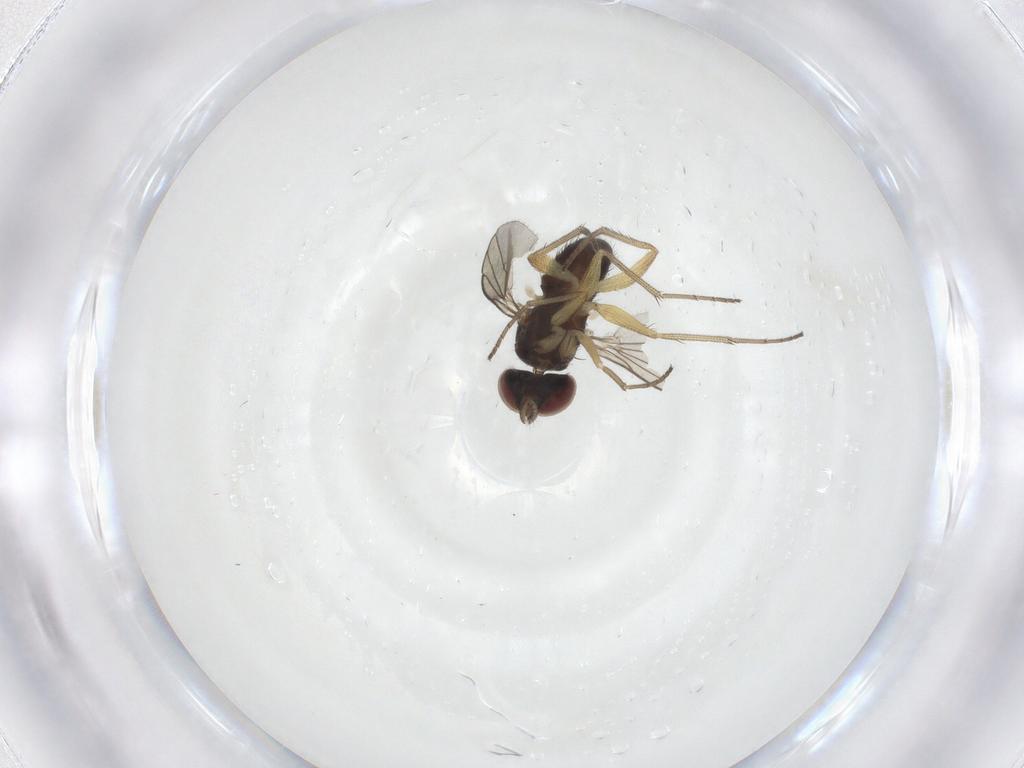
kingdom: Animalia
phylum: Arthropoda
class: Insecta
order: Diptera
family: Dolichopodidae
